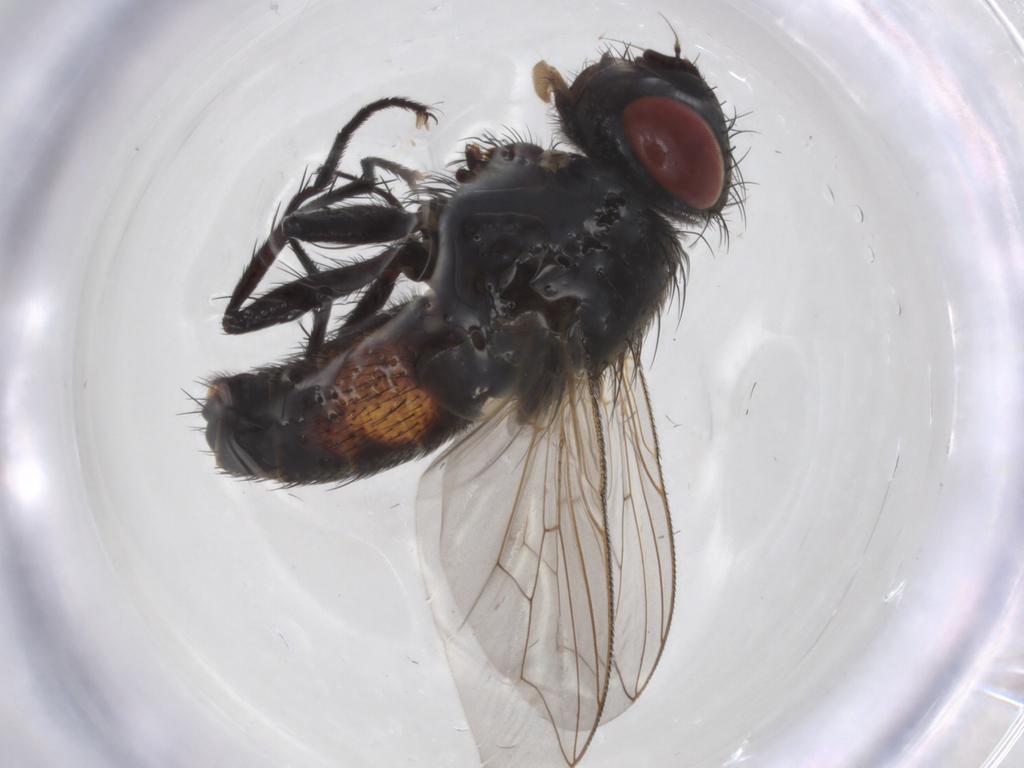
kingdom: Animalia
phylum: Arthropoda
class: Insecta
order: Diptera
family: Sarcophagidae
